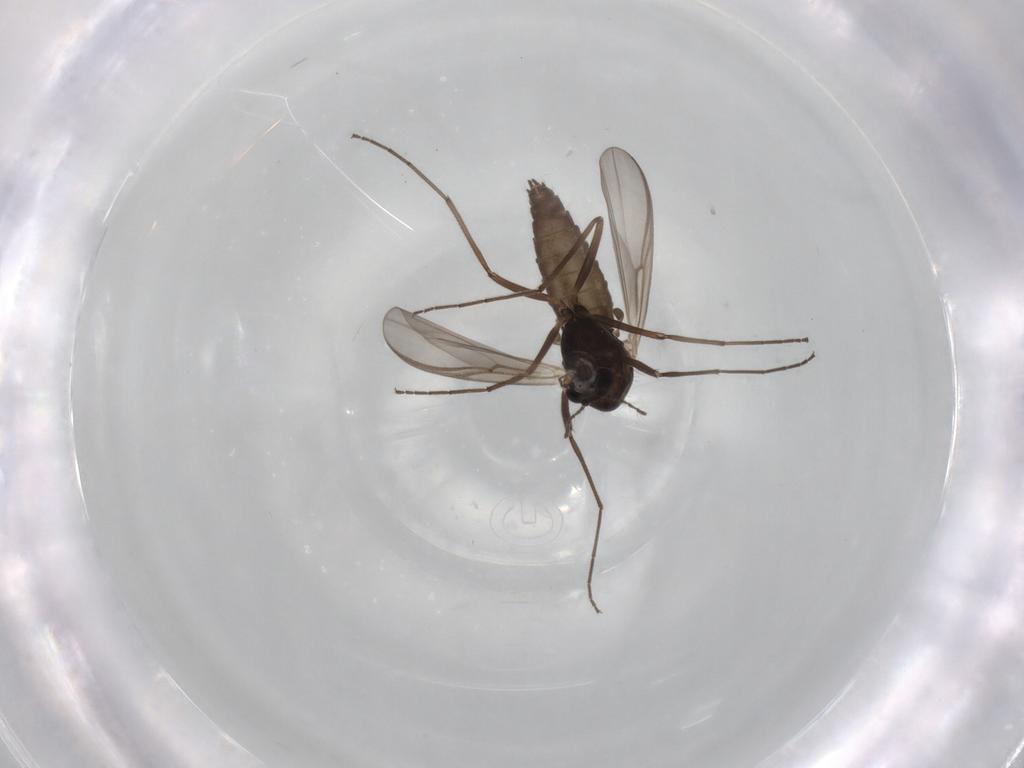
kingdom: Animalia
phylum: Arthropoda
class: Insecta
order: Diptera
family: Chironomidae
